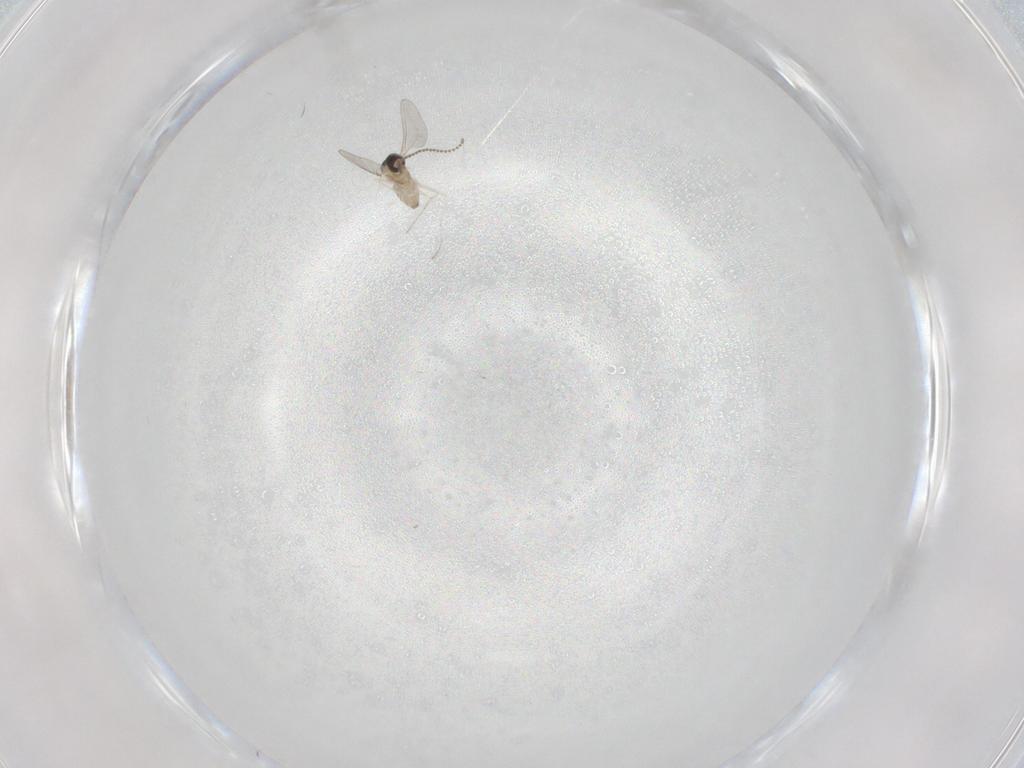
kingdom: Animalia
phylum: Arthropoda
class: Insecta
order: Diptera
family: Cecidomyiidae
